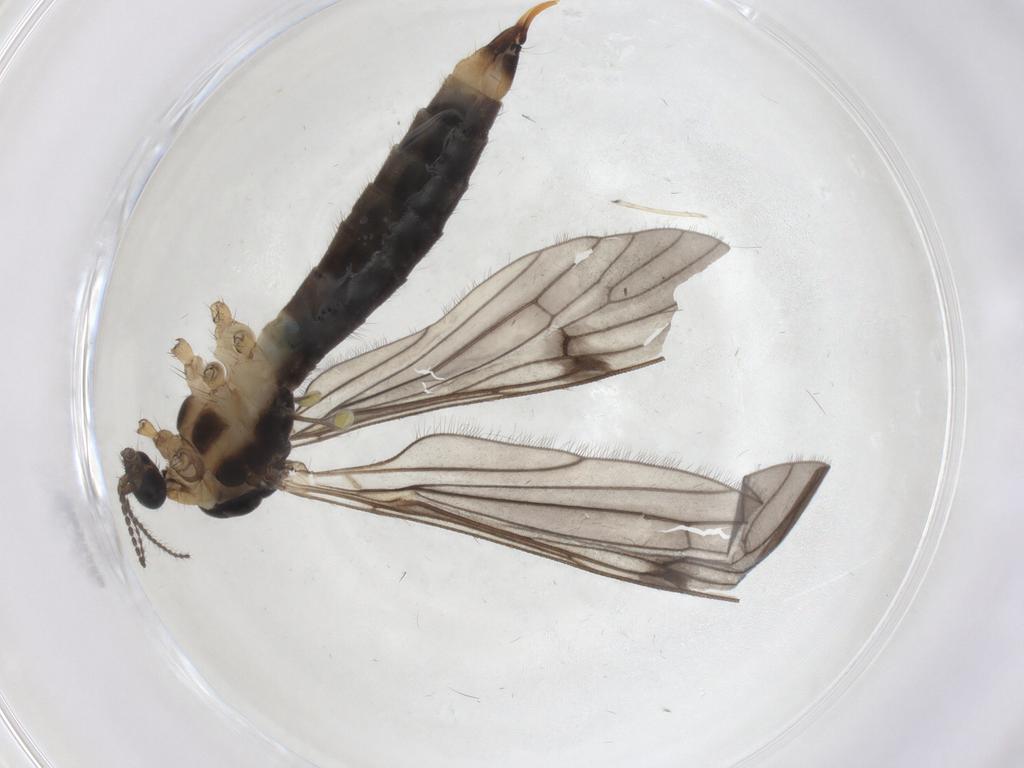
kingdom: Animalia
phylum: Arthropoda
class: Insecta
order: Diptera
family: Limoniidae
